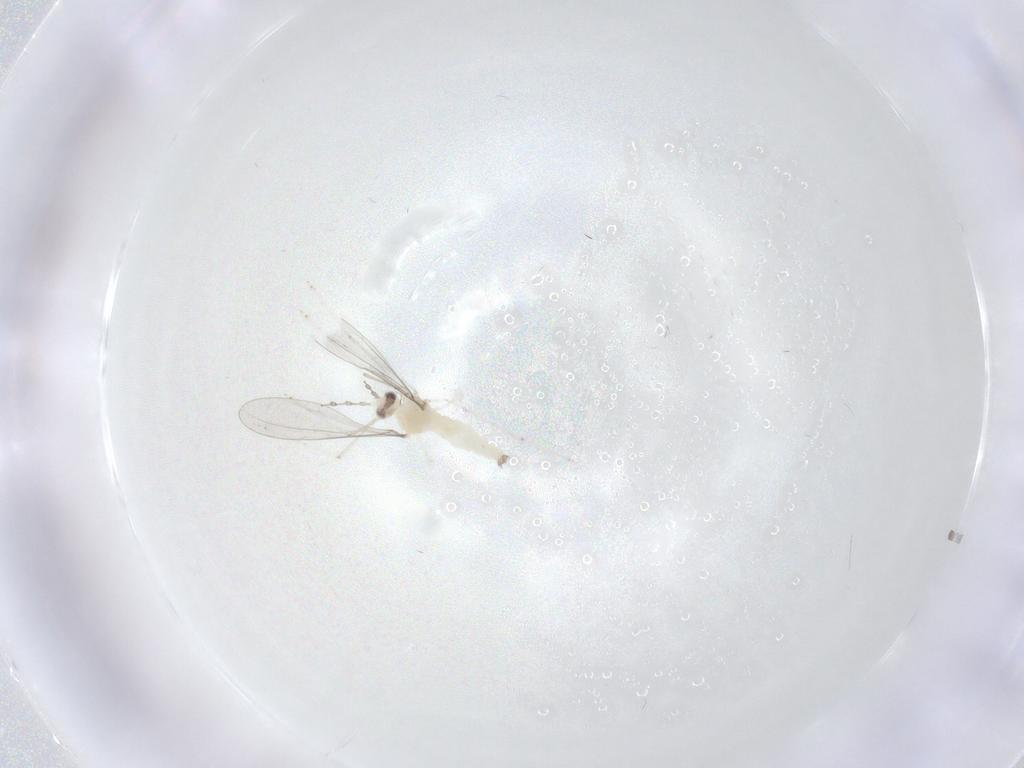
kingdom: Animalia
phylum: Arthropoda
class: Insecta
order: Diptera
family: Cecidomyiidae
